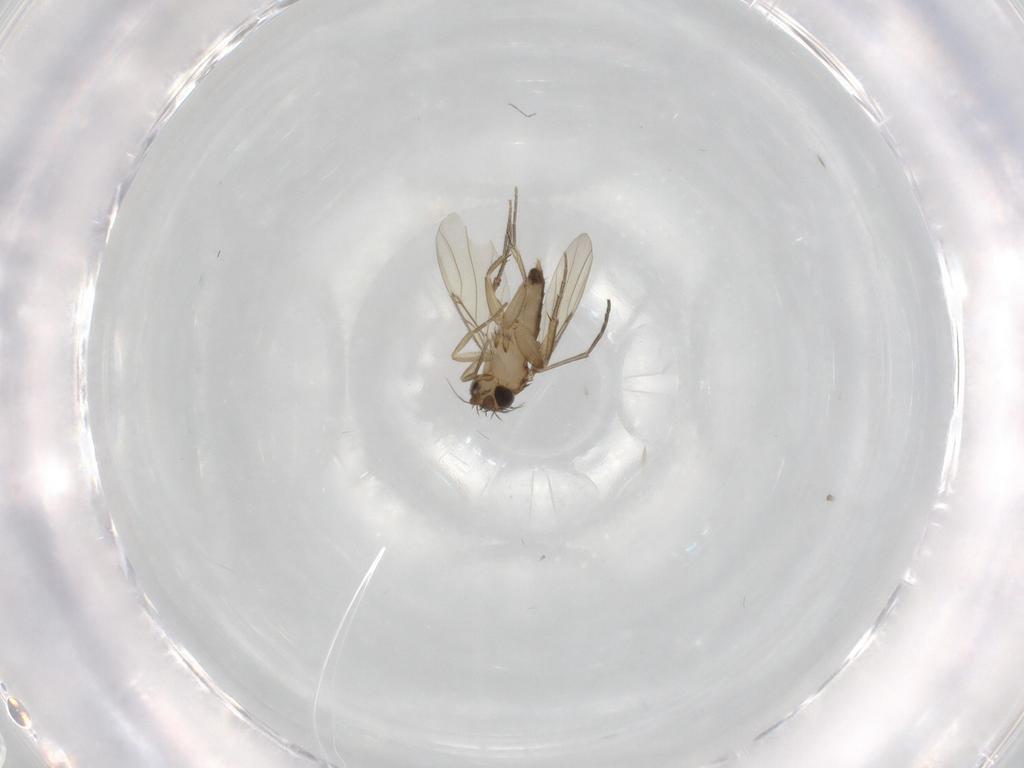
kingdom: Animalia
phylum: Arthropoda
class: Insecta
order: Diptera
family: Phoridae
